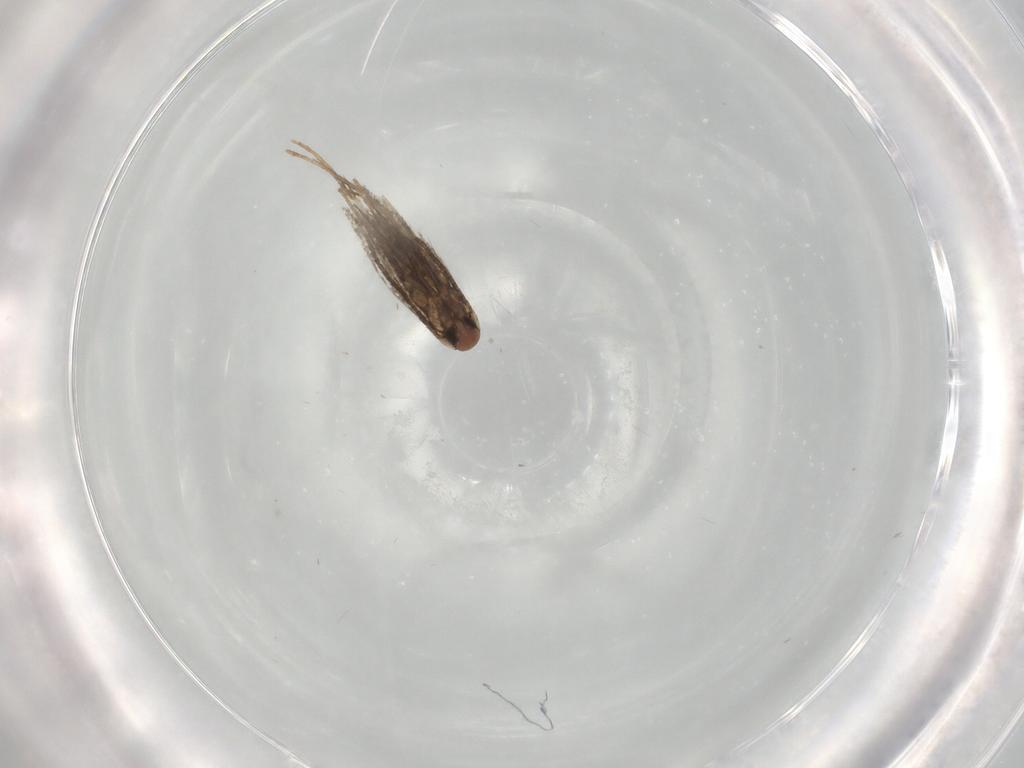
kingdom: Animalia
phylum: Arthropoda
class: Insecta
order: Lepidoptera
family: Gracillariidae
